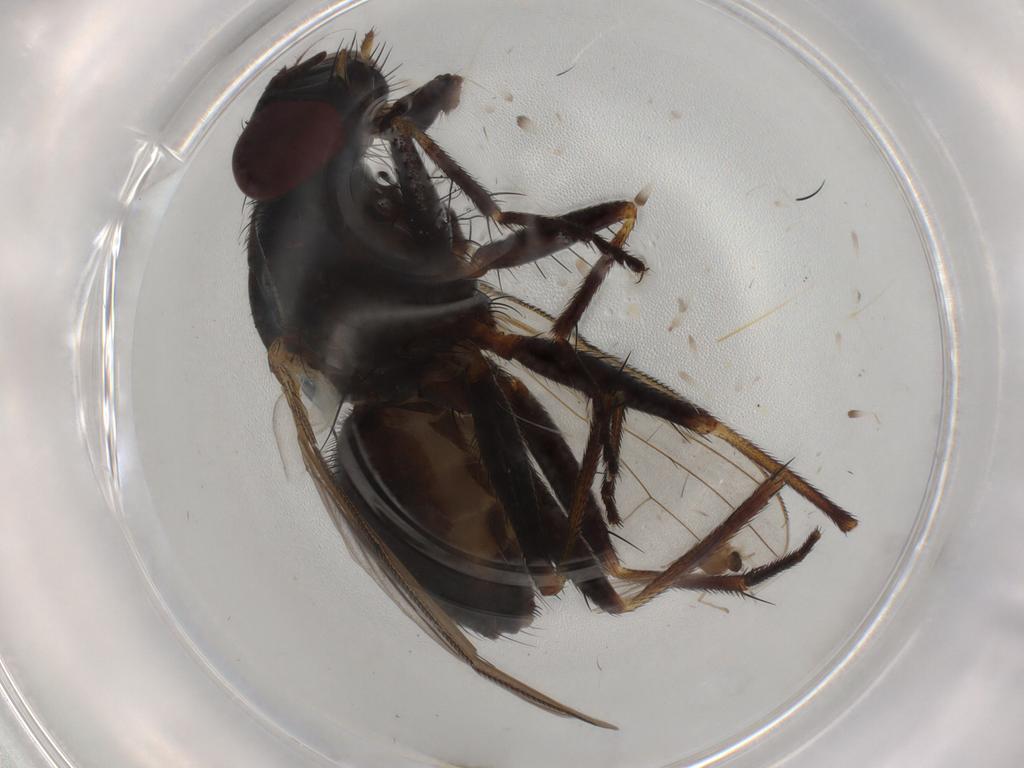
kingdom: Animalia
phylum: Arthropoda
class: Insecta
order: Diptera
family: Muscidae
